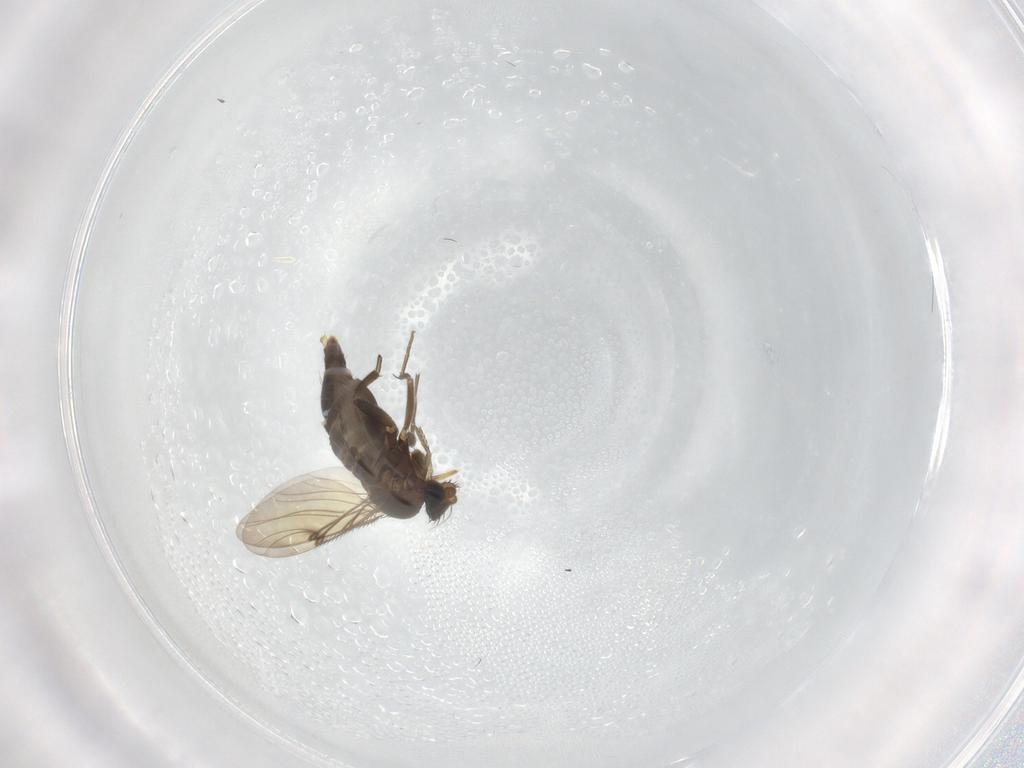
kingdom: Animalia
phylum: Arthropoda
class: Insecta
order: Diptera
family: Phoridae
